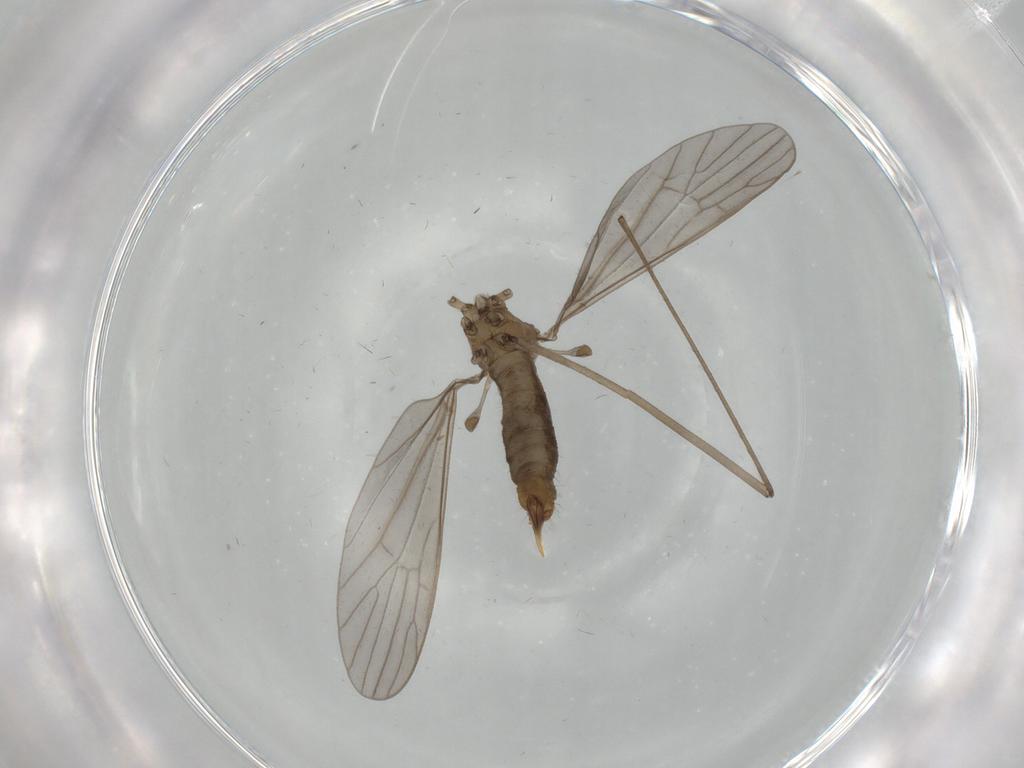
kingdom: Animalia
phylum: Arthropoda
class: Insecta
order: Diptera
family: Limoniidae
